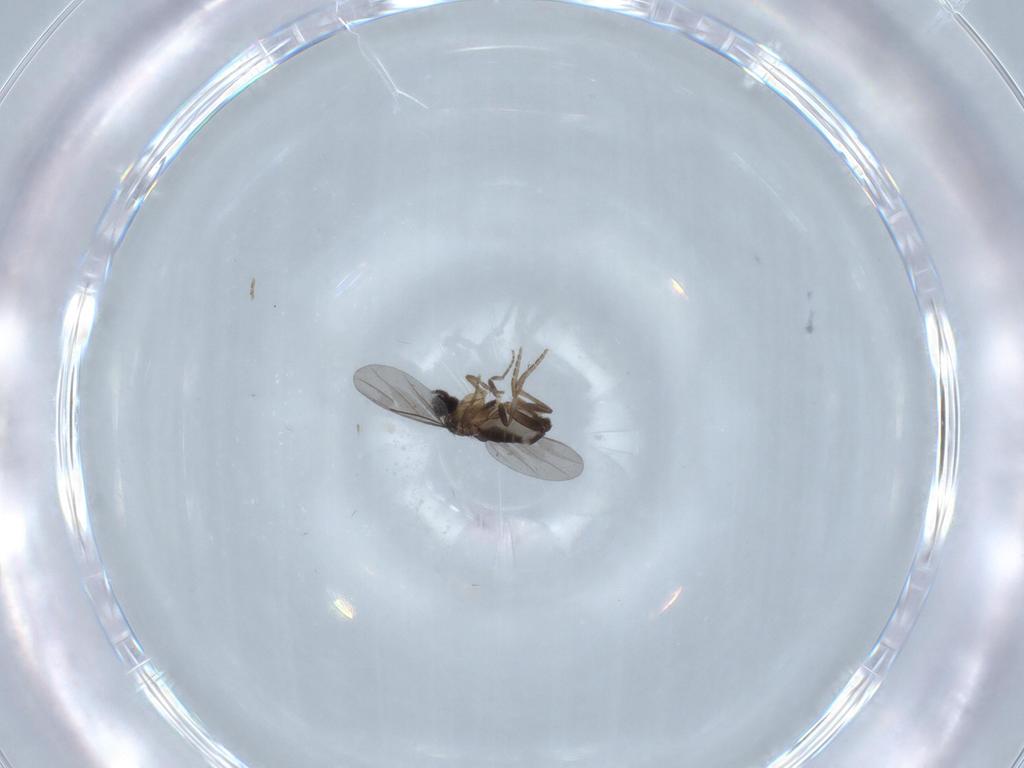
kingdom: Animalia
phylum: Arthropoda
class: Insecta
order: Diptera
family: Chironomidae
